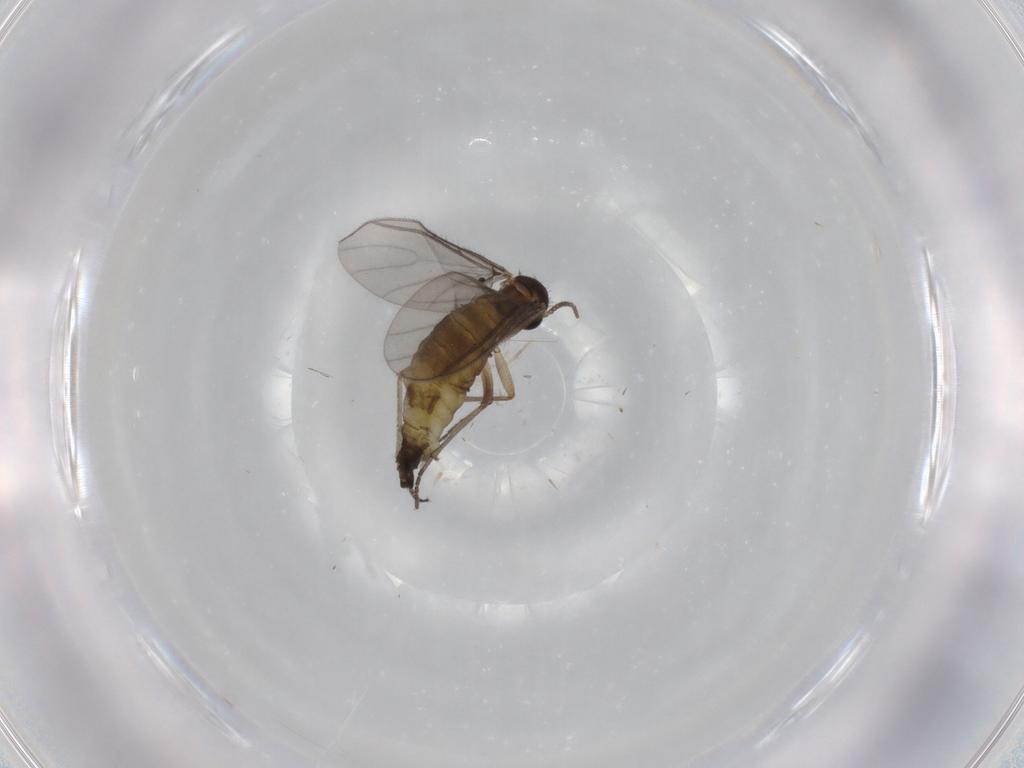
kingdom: Animalia
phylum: Arthropoda
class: Insecta
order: Diptera
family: Sciaridae
